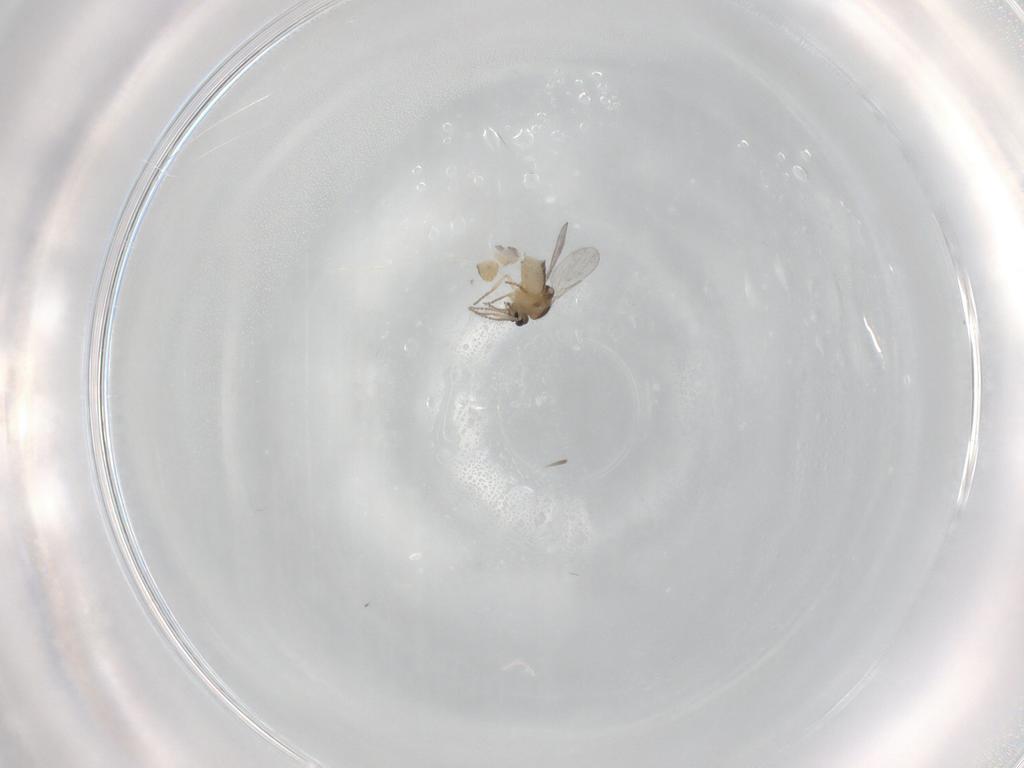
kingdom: Animalia
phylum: Arthropoda
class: Insecta
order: Diptera
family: Ceratopogonidae
